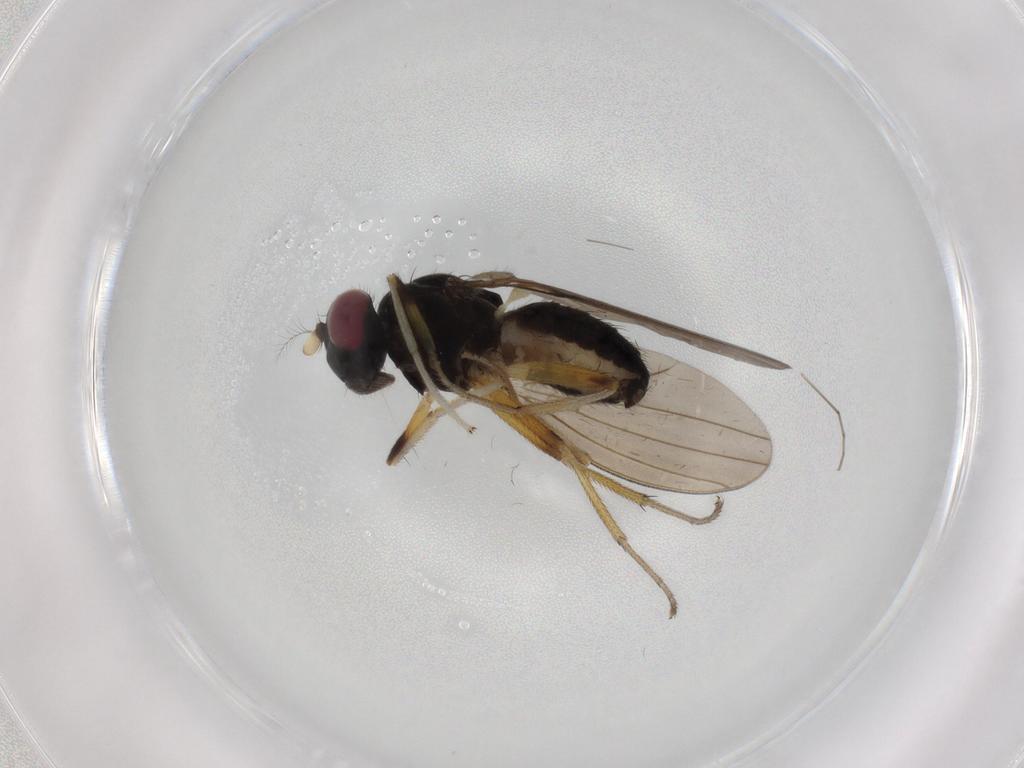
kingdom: Animalia
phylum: Arthropoda
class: Insecta
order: Diptera
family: Lauxaniidae
